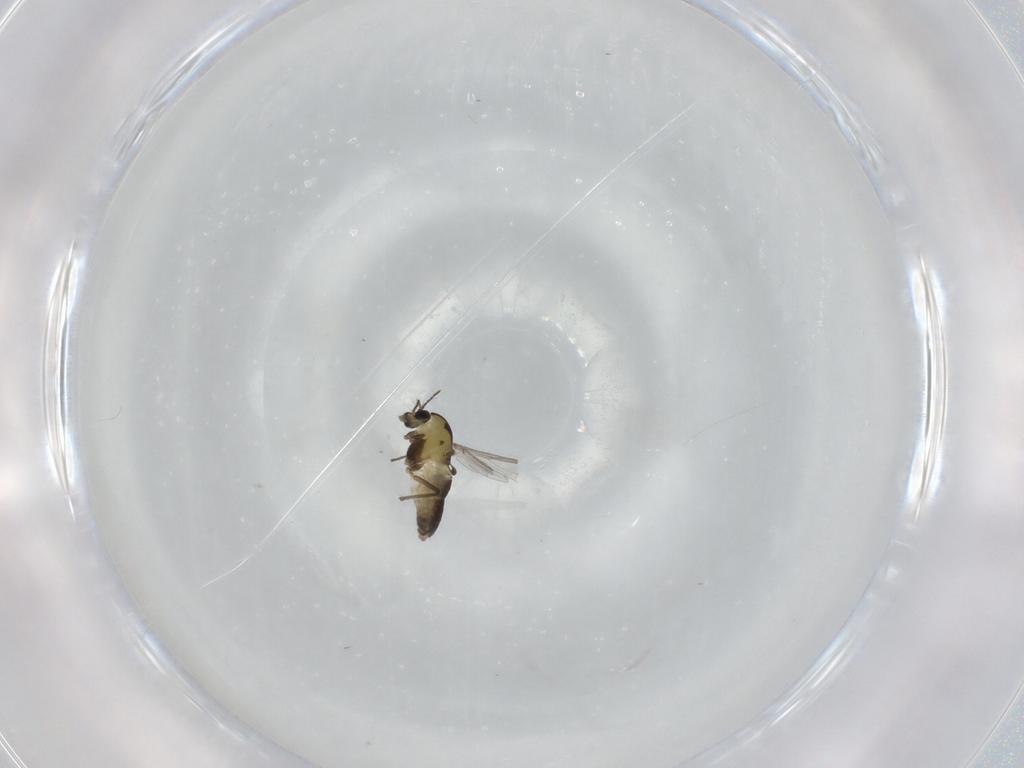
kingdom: Animalia
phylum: Arthropoda
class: Insecta
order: Diptera
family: Chironomidae
